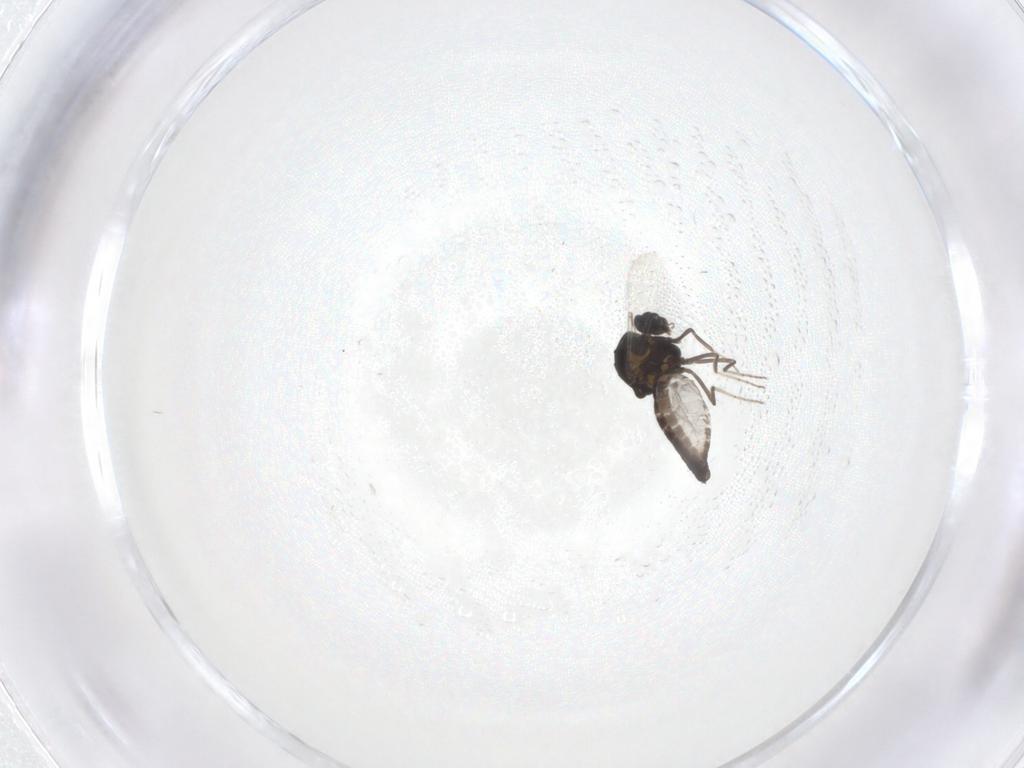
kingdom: Animalia
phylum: Arthropoda
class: Insecta
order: Diptera
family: Ceratopogonidae
